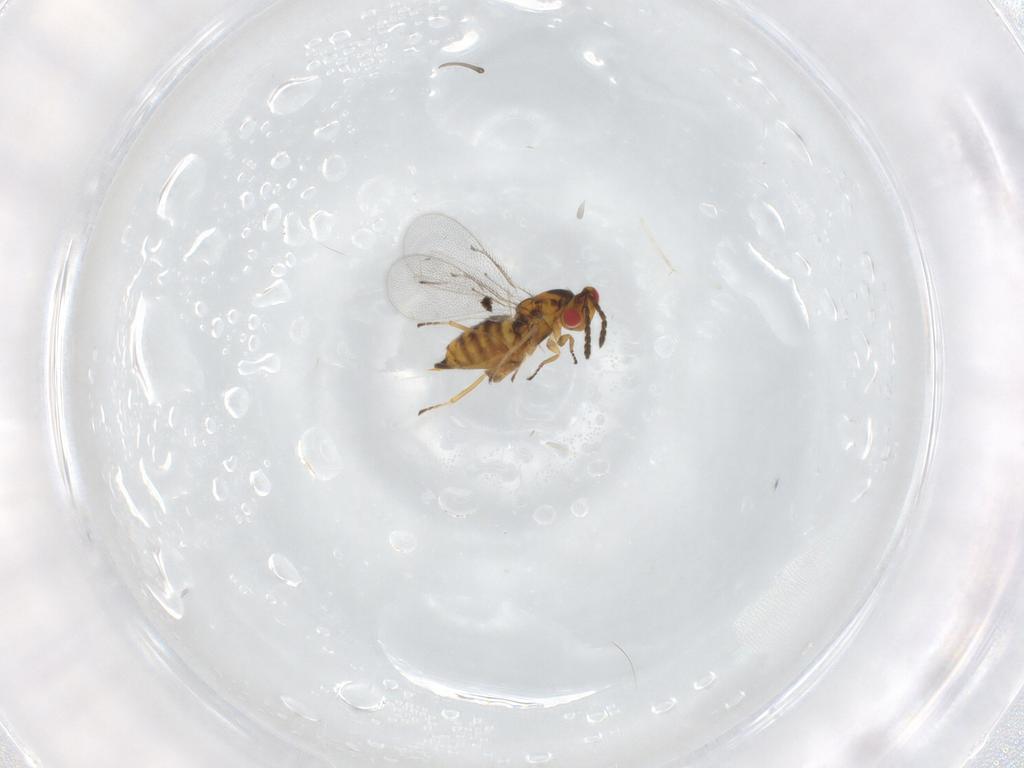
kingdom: Animalia
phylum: Arthropoda
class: Insecta
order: Hymenoptera
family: Eulophidae
